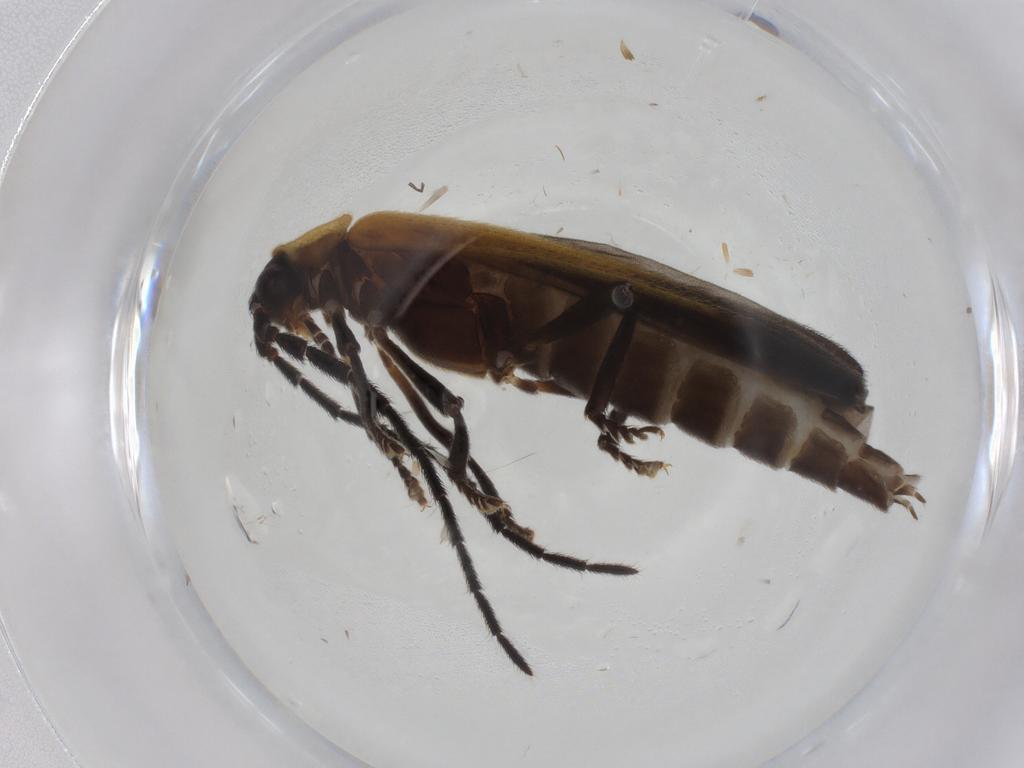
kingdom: Animalia
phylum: Arthropoda
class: Insecta
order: Coleoptera
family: Lycidae
